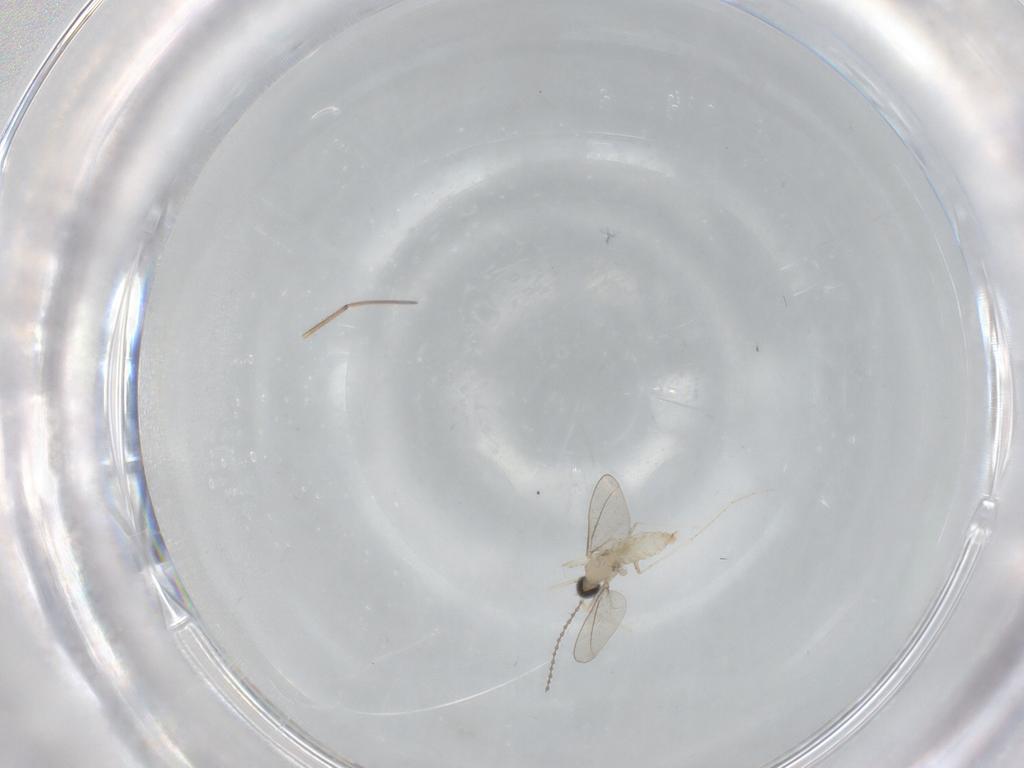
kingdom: Animalia
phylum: Arthropoda
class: Insecta
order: Diptera
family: Cecidomyiidae
